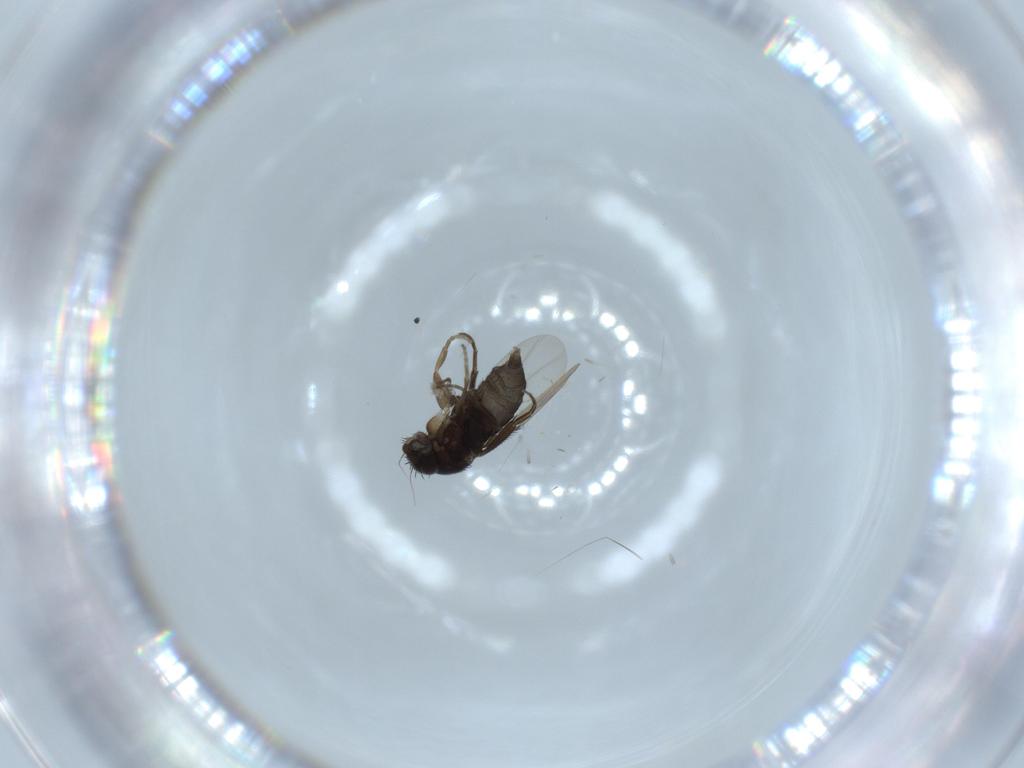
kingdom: Animalia
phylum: Arthropoda
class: Insecta
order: Diptera
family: Phoridae
